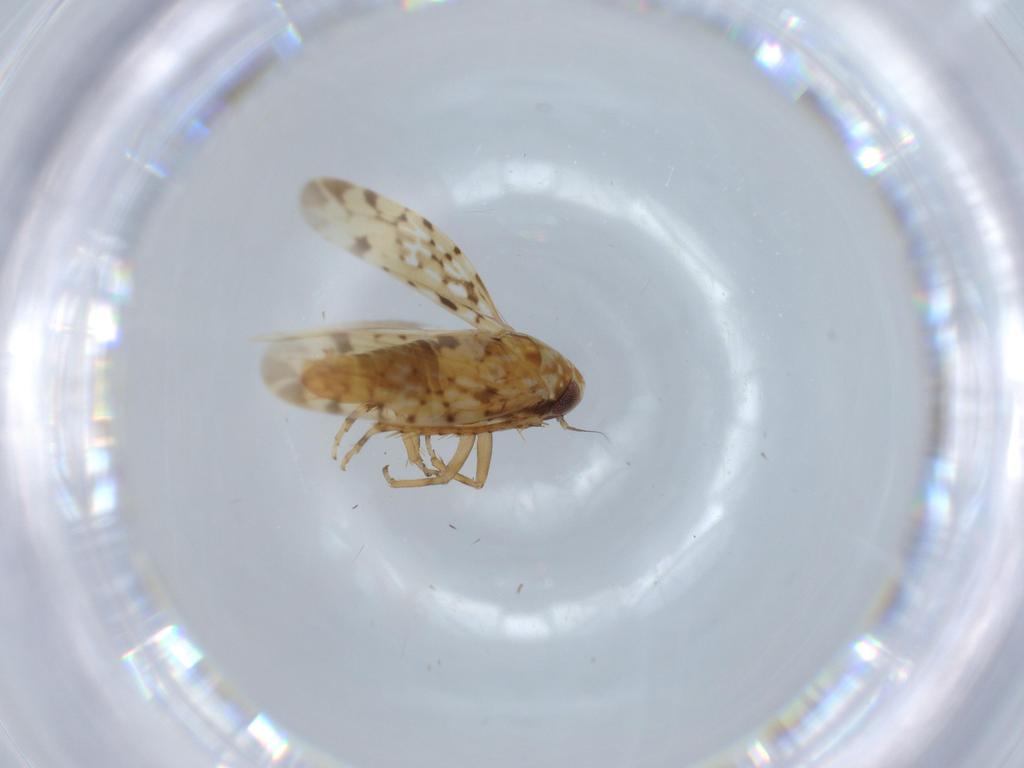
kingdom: Animalia
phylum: Arthropoda
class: Insecta
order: Hemiptera
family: Cicadellidae
